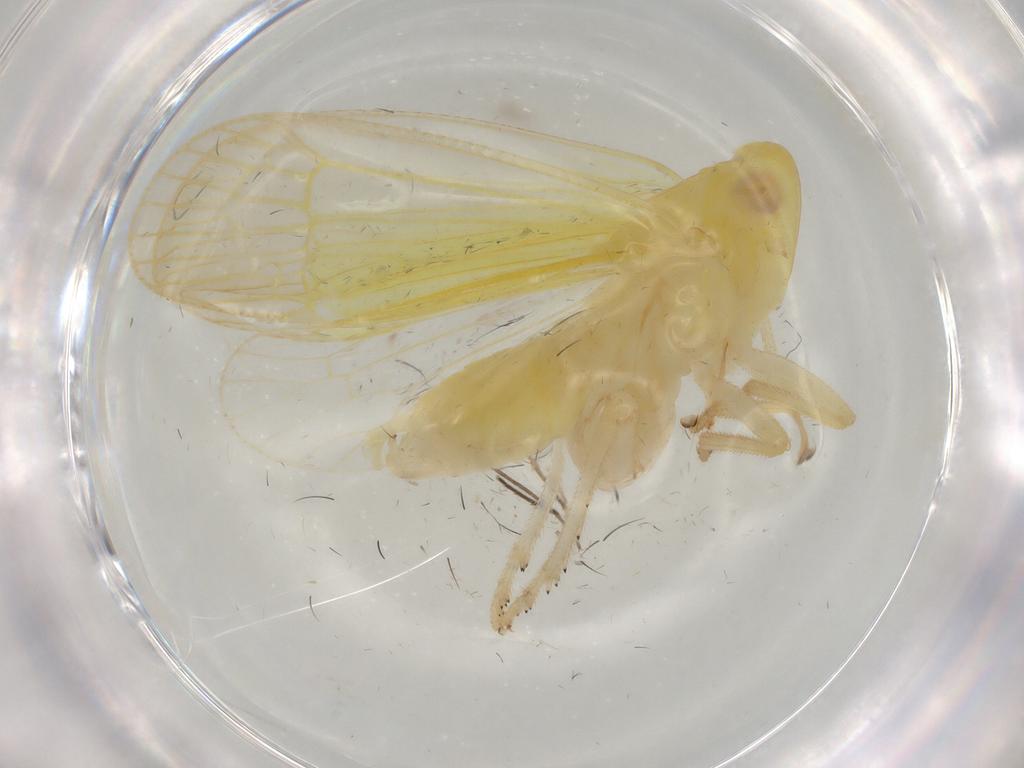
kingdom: Animalia
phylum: Arthropoda
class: Insecta
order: Hemiptera
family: Tropiduchidae
